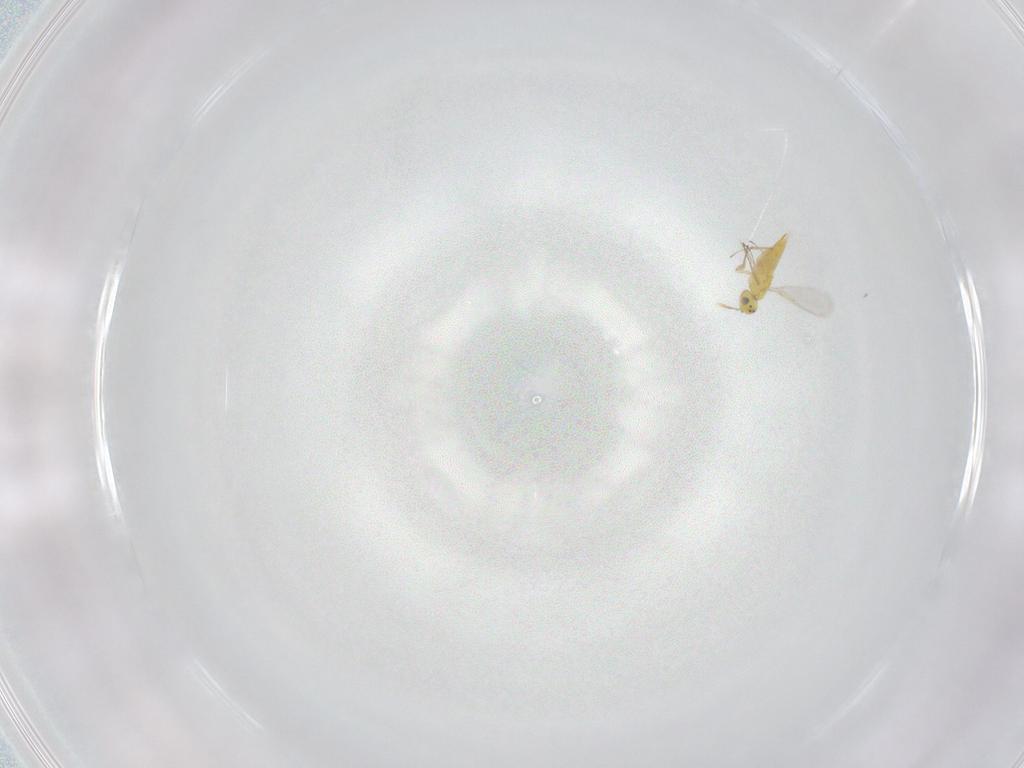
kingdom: Animalia
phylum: Arthropoda
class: Insecta
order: Hymenoptera
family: Aphelinidae
